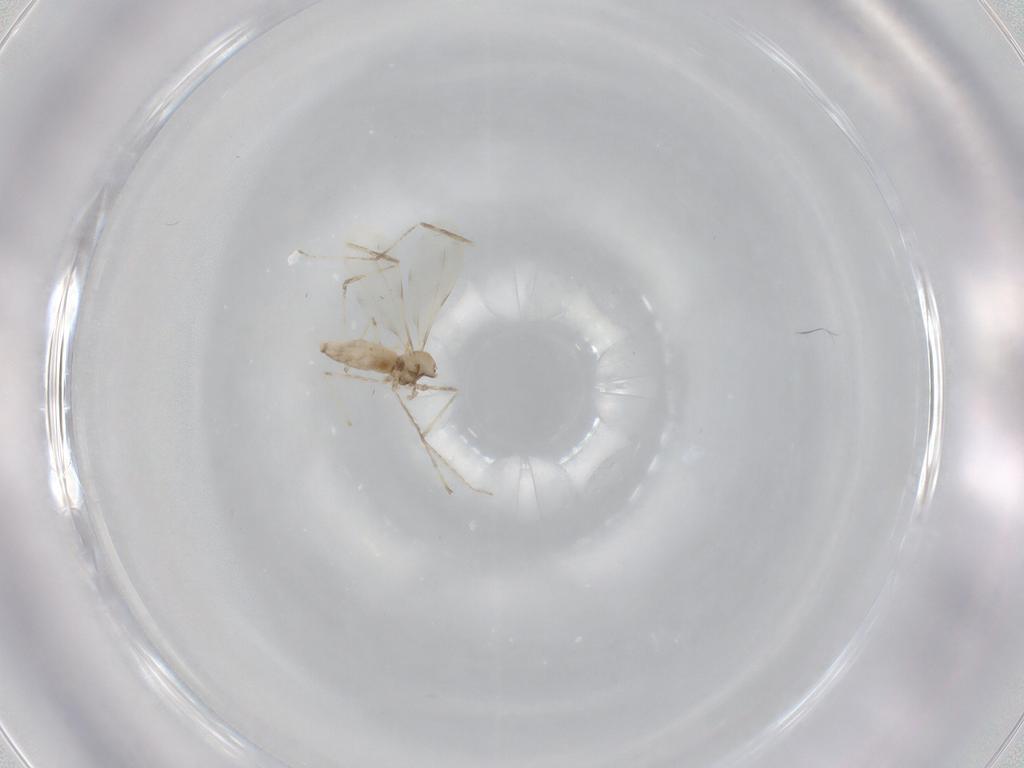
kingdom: Animalia
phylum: Arthropoda
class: Insecta
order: Diptera
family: Cecidomyiidae
